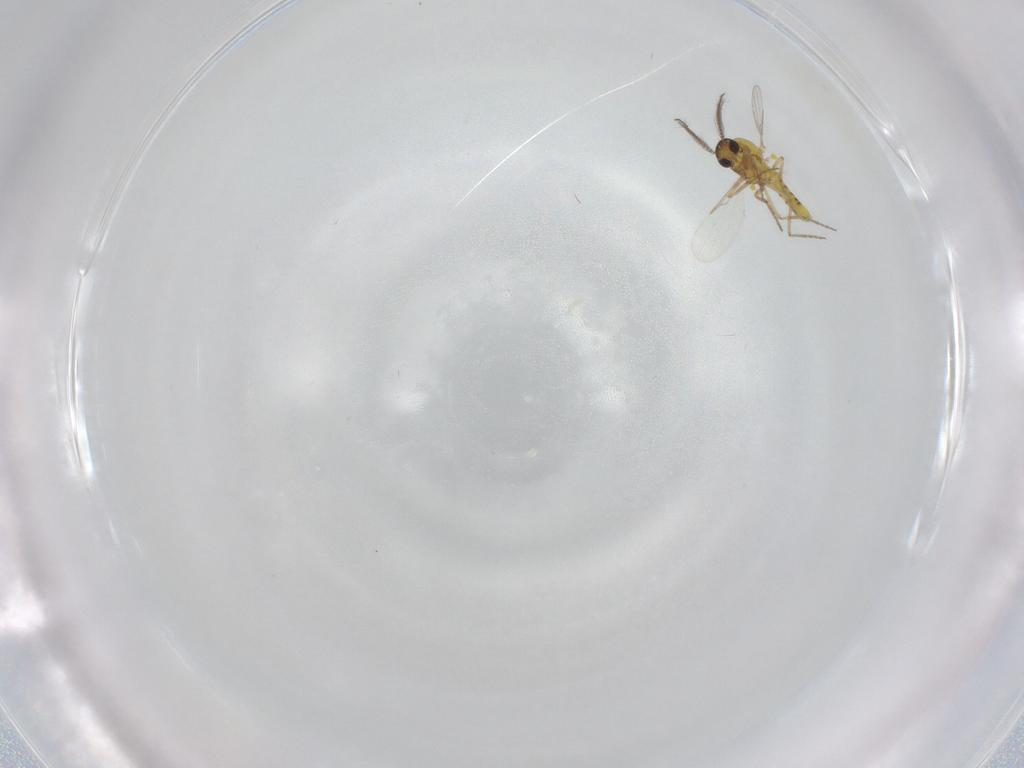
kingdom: Animalia
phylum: Arthropoda
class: Insecta
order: Diptera
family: Ceratopogonidae
